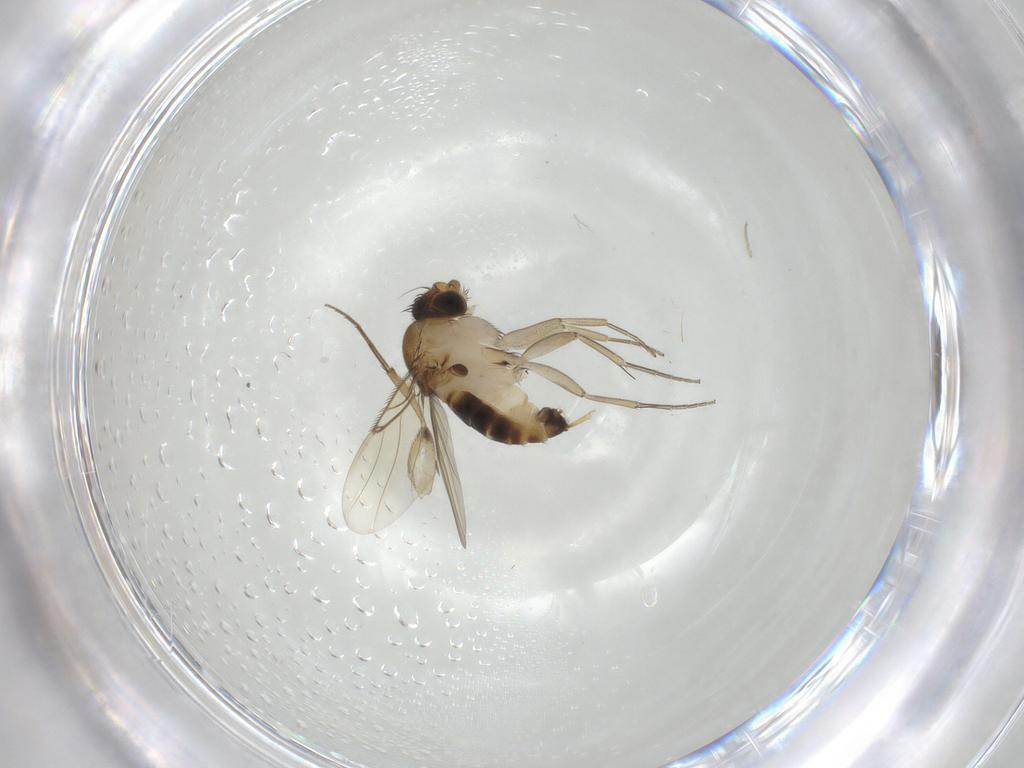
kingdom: Animalia
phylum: Arthropoda
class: Insecta
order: Diptera
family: Phoridae
